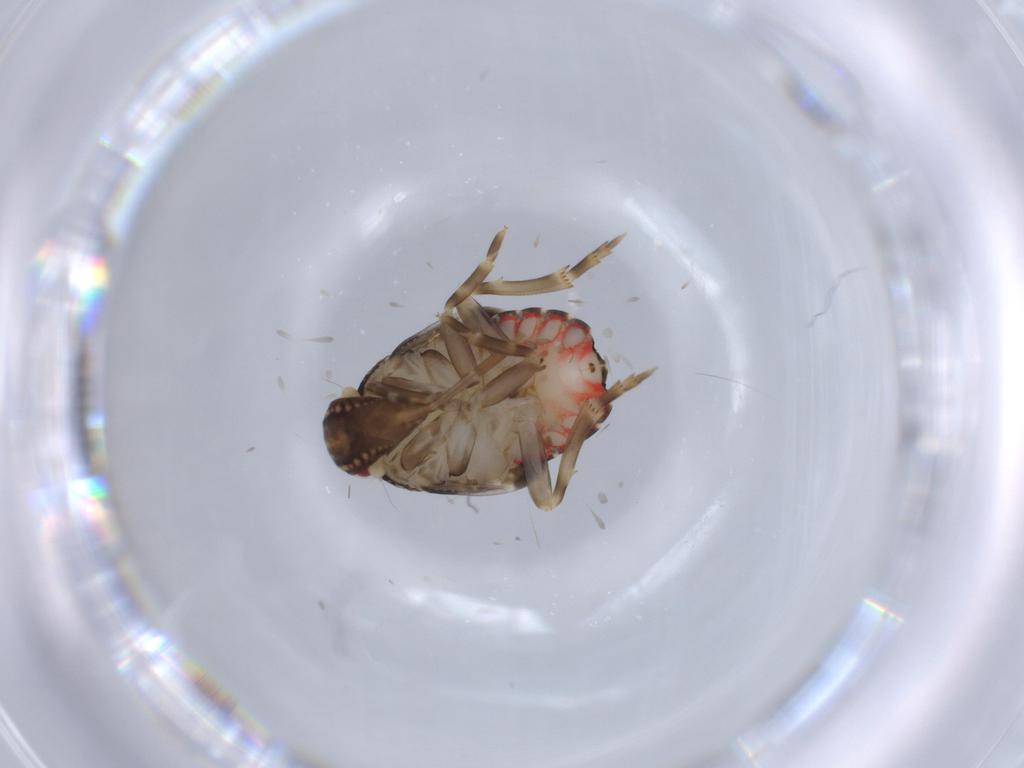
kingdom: Animalia
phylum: Arthropoda
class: Insecta
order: Hemiptera
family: Achilidae
